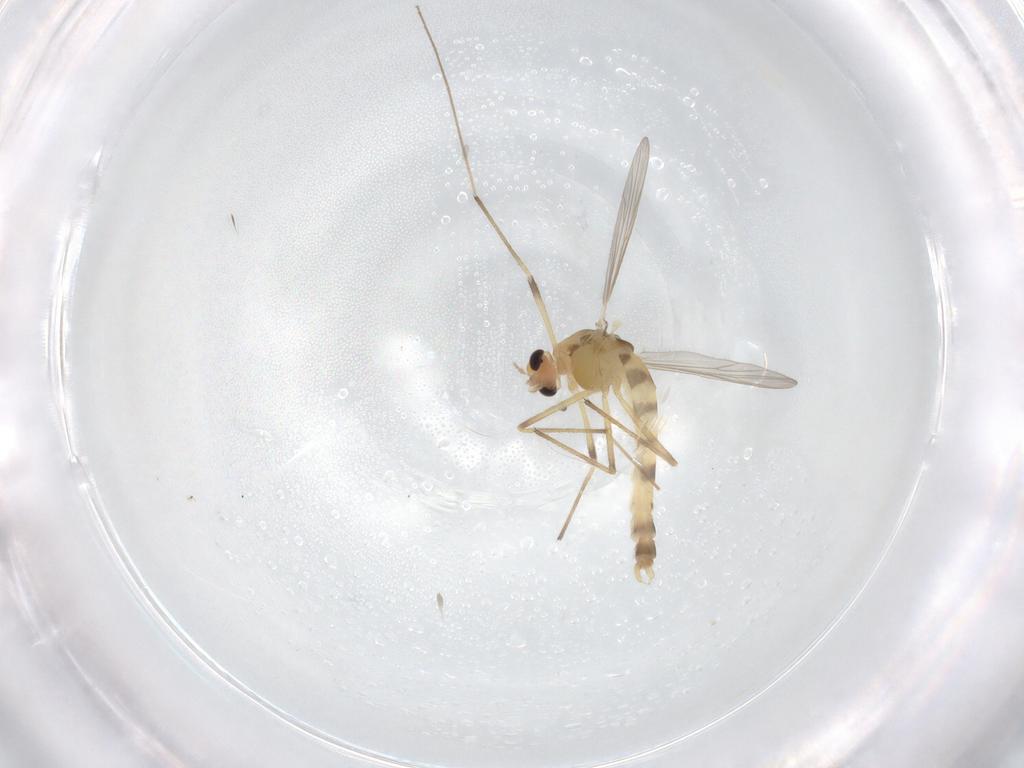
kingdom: Animalia
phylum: Arthropoda
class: Insecta
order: Diptera
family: Chironomidae
